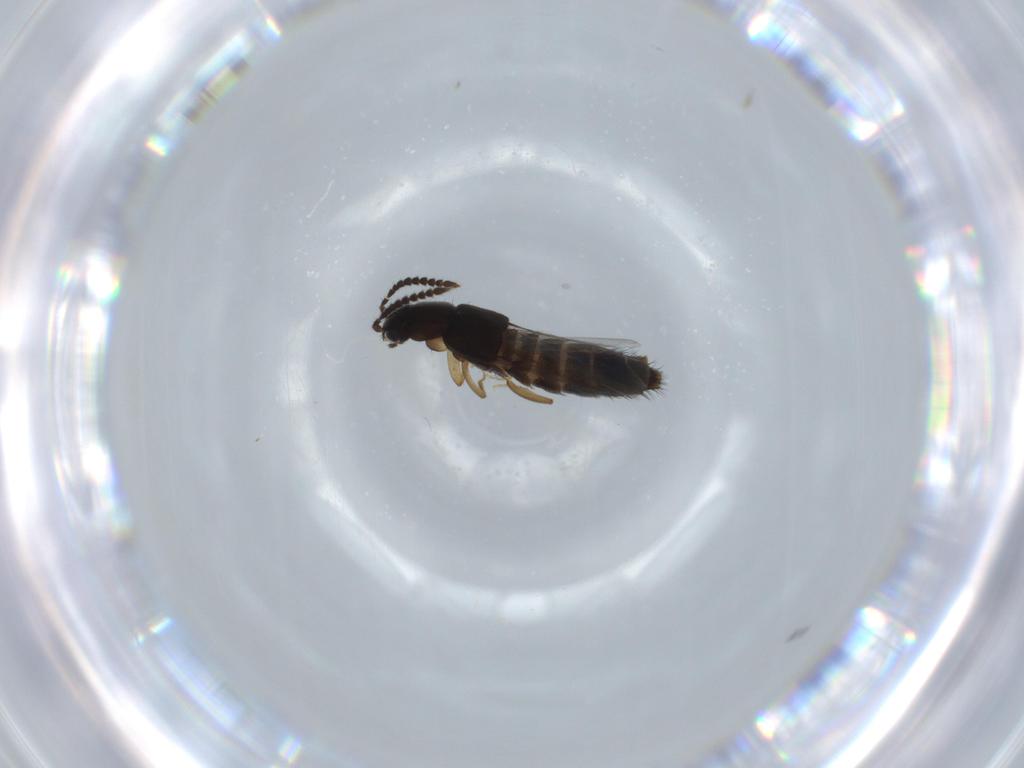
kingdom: Animalia
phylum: Arthropoda
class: Insecta
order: Coleoptera
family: Staphylinidae
